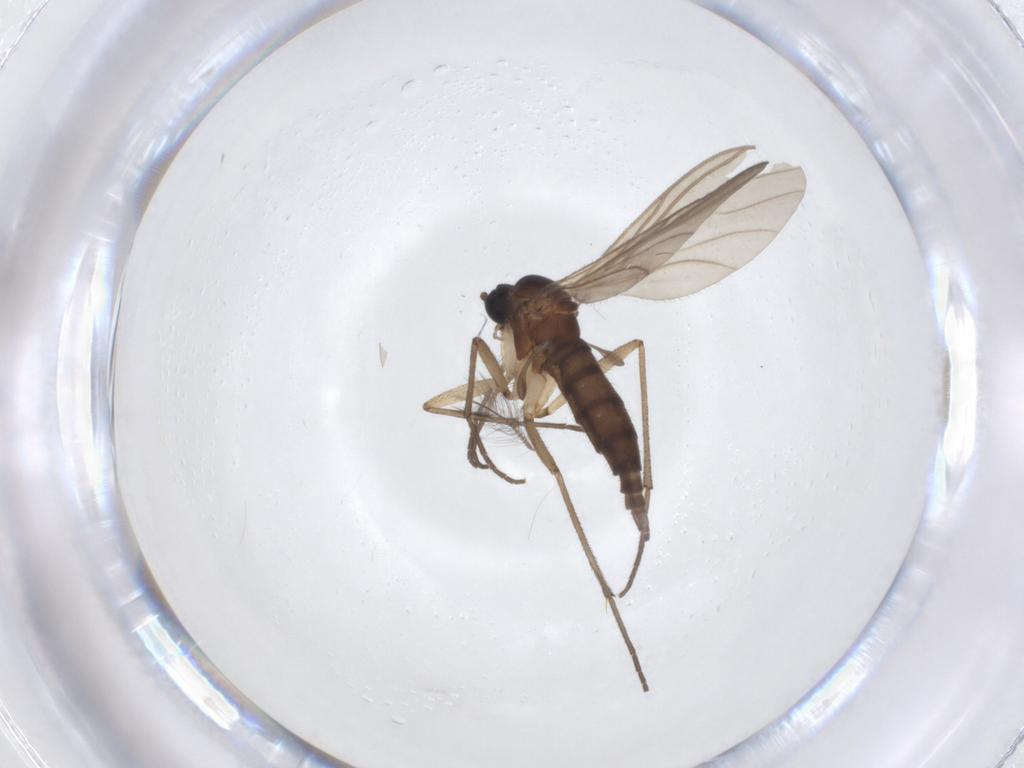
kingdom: Animalia
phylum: Arthropoda
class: Insecta
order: Diptera
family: Sciaridae
